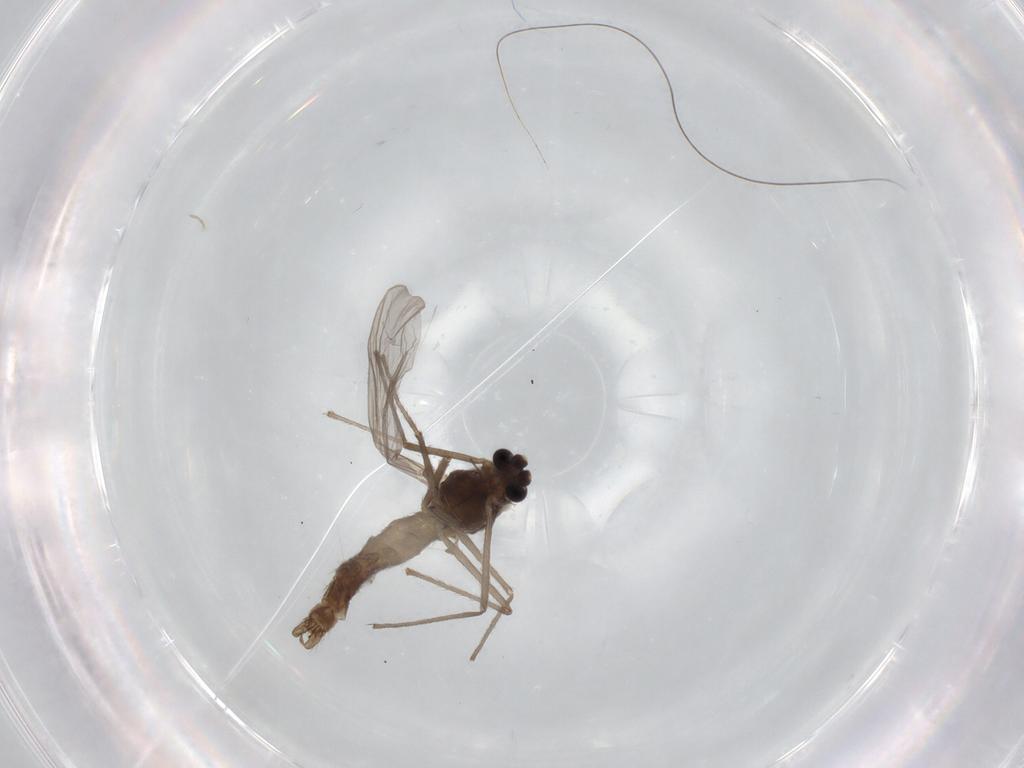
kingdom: Animalia
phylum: Arthropoda
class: Insecta
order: Diptera
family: Chironomidae
